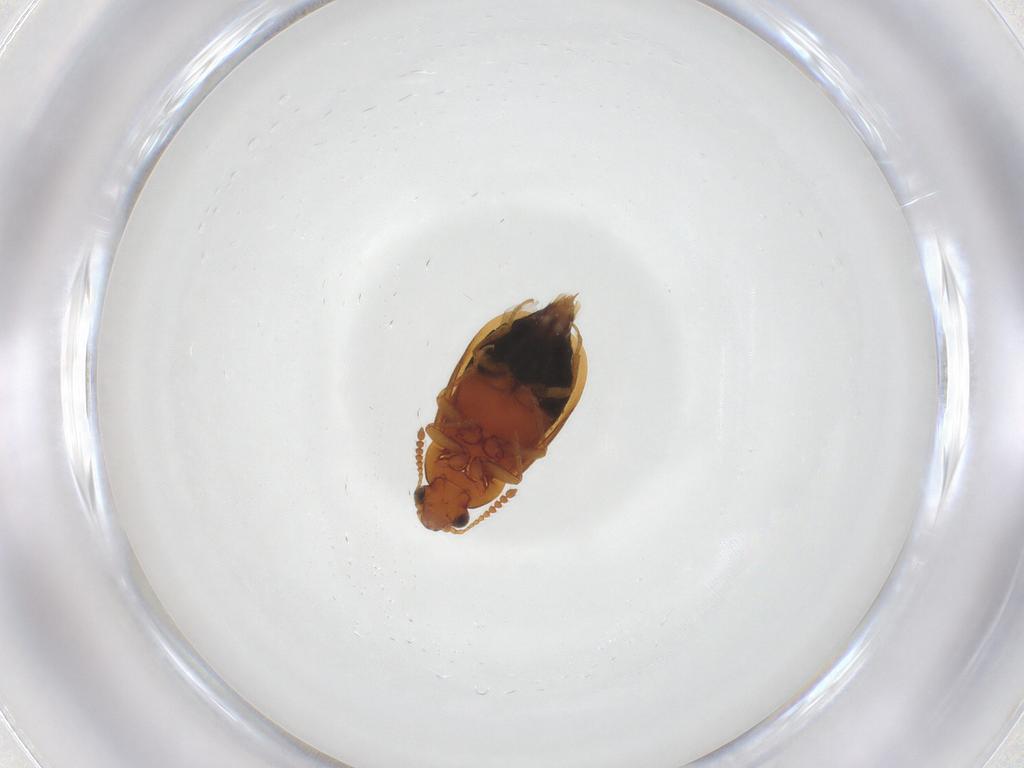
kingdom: Animalia
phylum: Arthropoda
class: Insecta
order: Coleoptera
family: Staphylinidae
